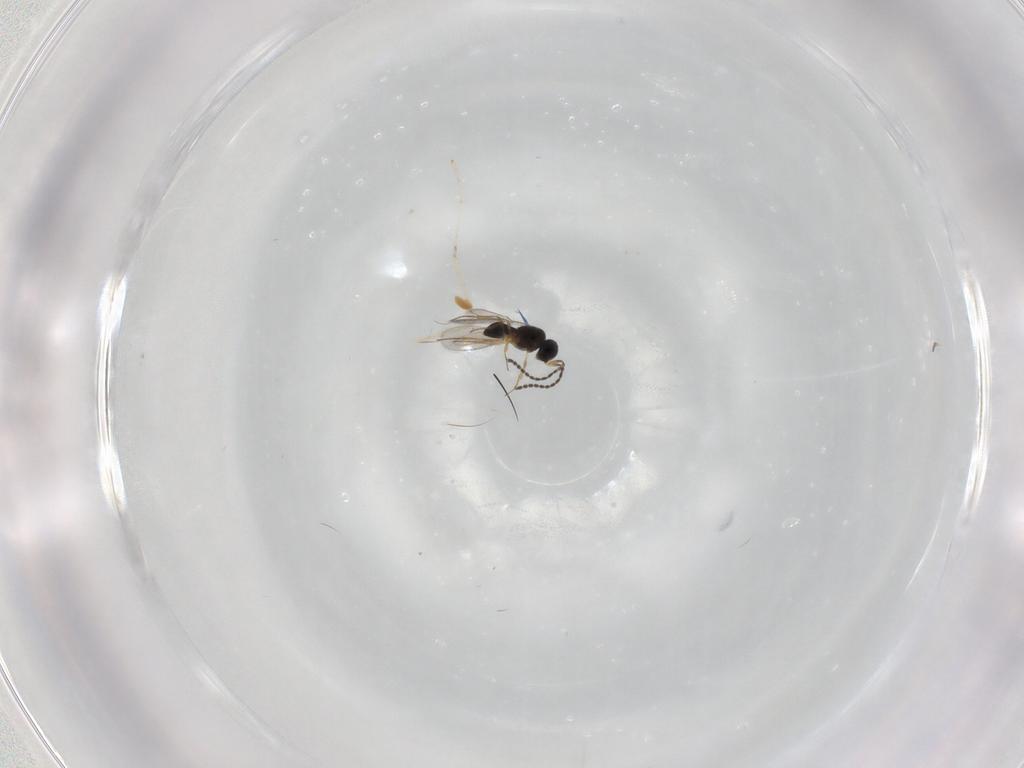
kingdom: Animalia
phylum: Arthropoda
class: Insecta
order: Hymenoptera
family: Scelionidae
